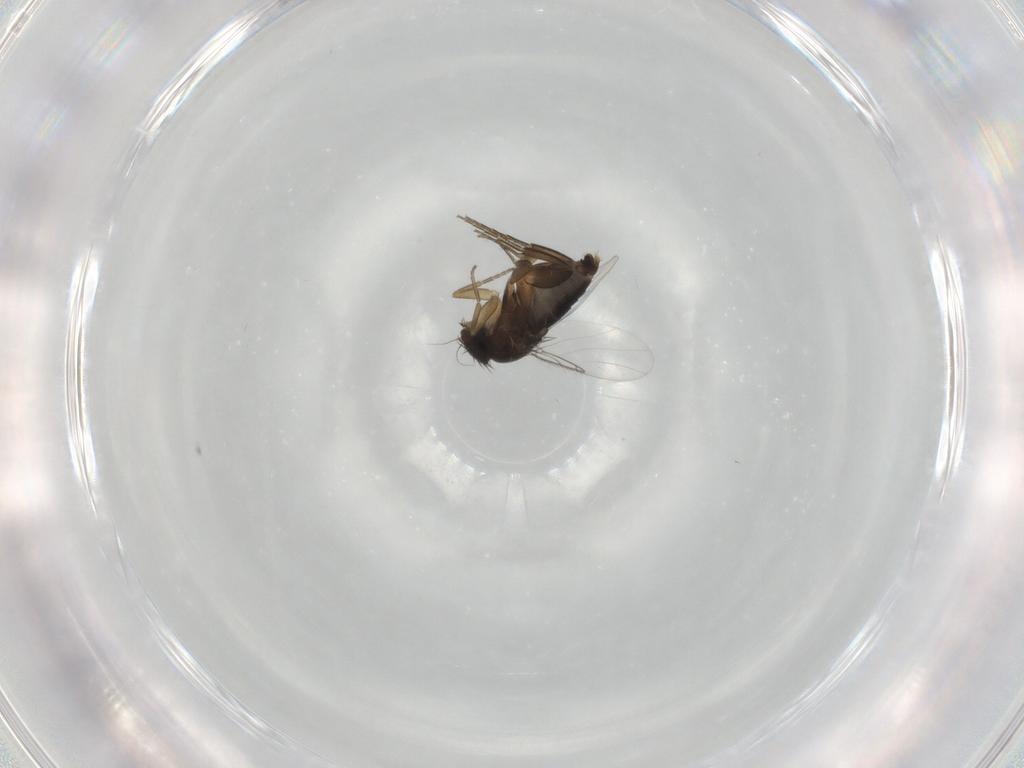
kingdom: Animalia
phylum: Arthropoda
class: Insecta
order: Diptera
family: Phoridae
